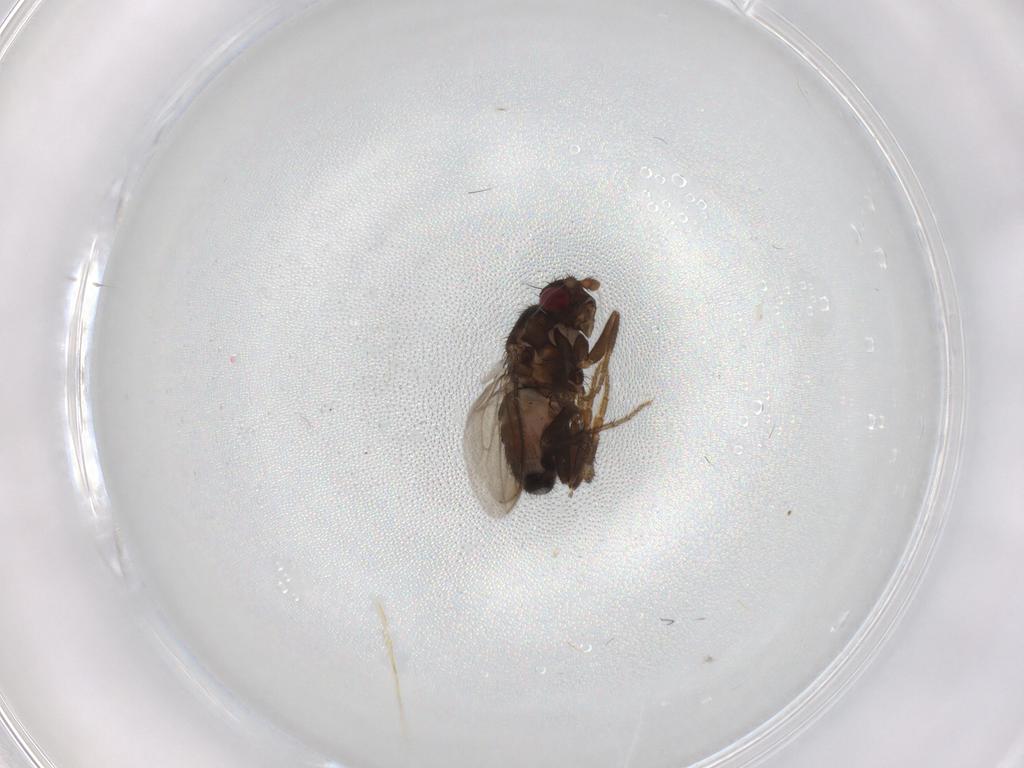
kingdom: Animalia
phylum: Arthropoda
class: Insecta
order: Diptera
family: Sphaeroceridae
